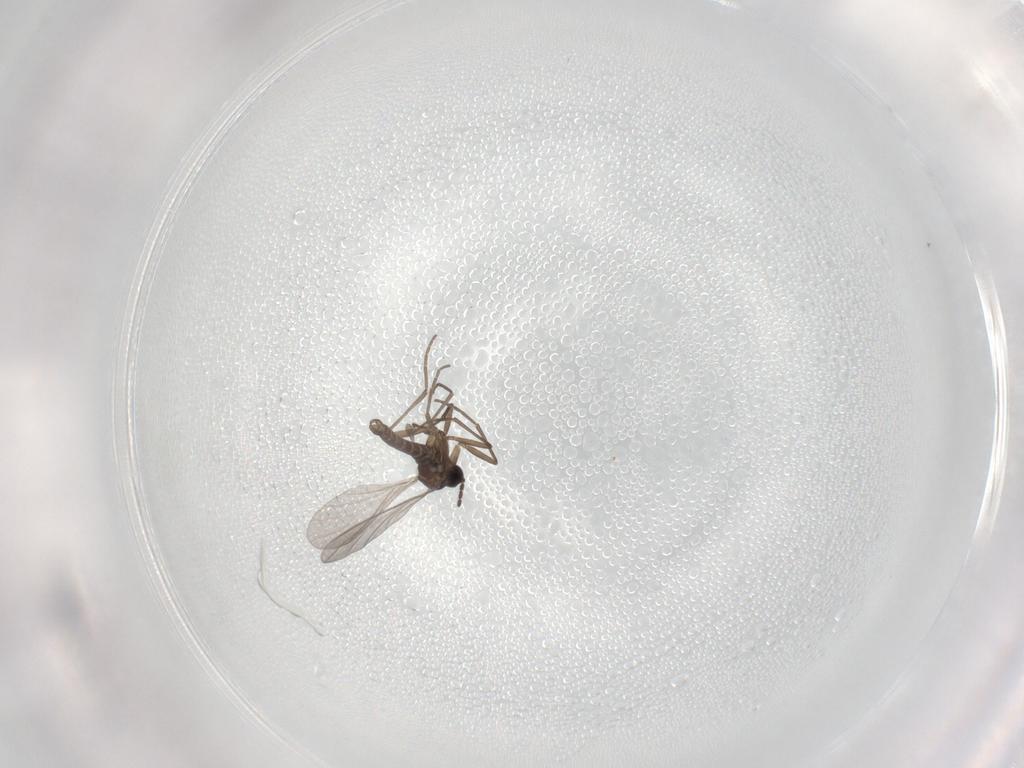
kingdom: Animalia
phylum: Arthropoda
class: Insecta
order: Diptera
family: Sciaridae
